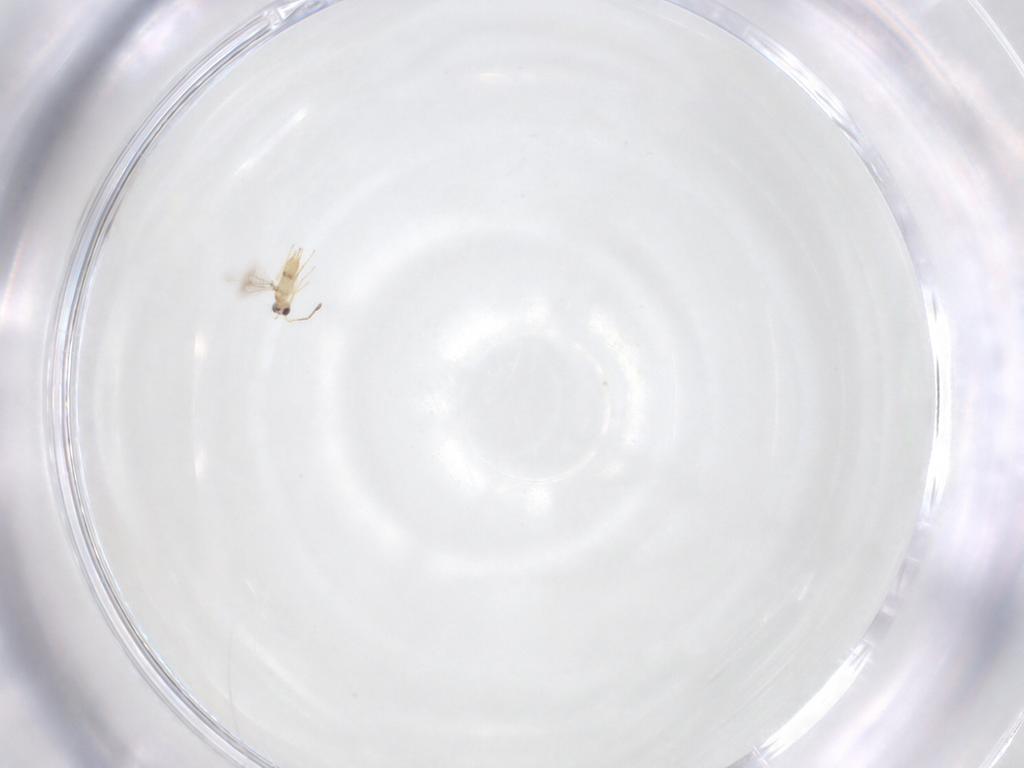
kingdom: Animalia
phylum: Arthropoda
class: Insecta
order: Hymenoptera
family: Mymaridae
